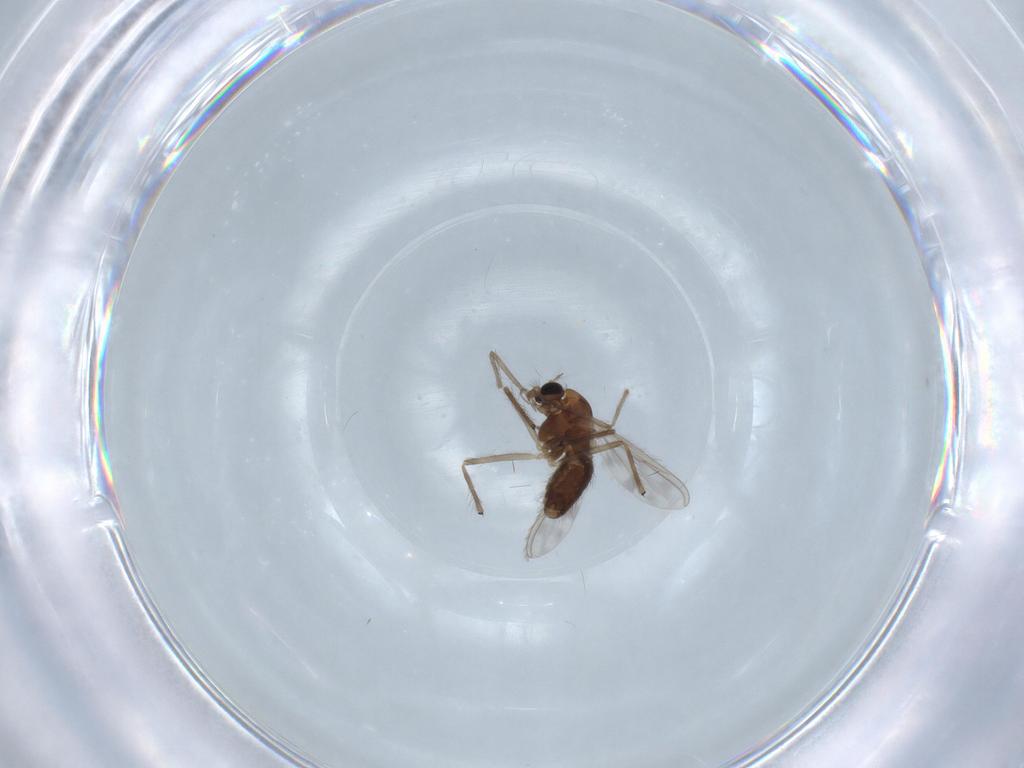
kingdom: Animalia
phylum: Arthropoda
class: Insecta
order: Diptera
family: Chironomidae
